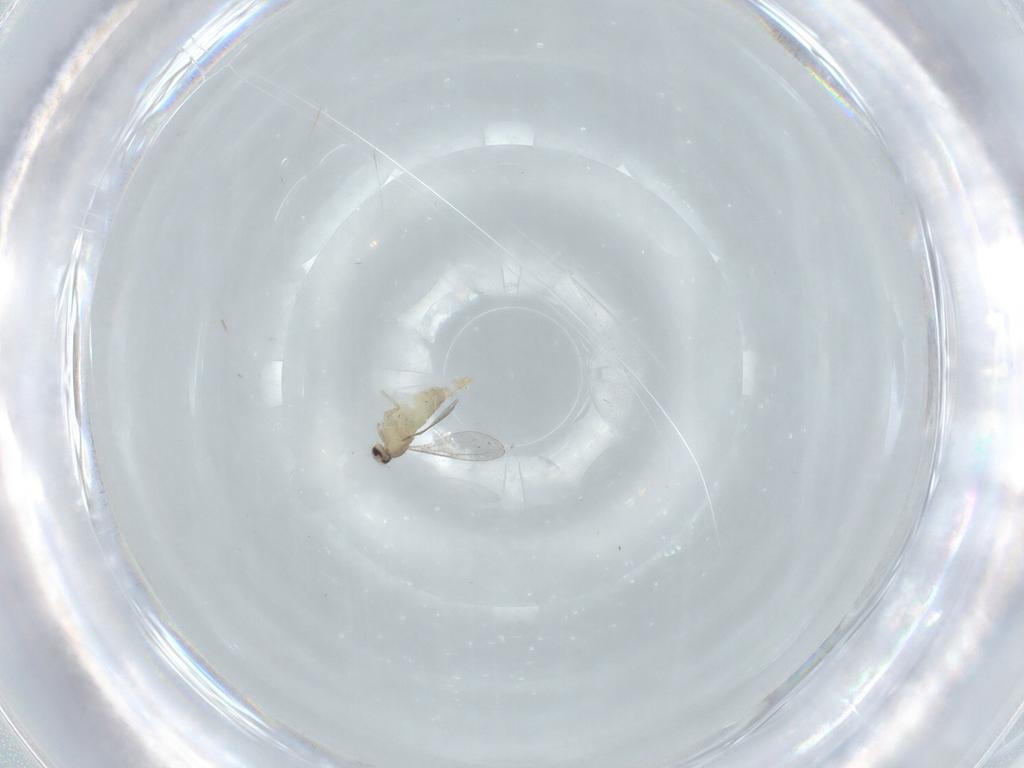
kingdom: Animalia
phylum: Arthropoda
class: Insecta
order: Diptera
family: Cecidomyiidae
